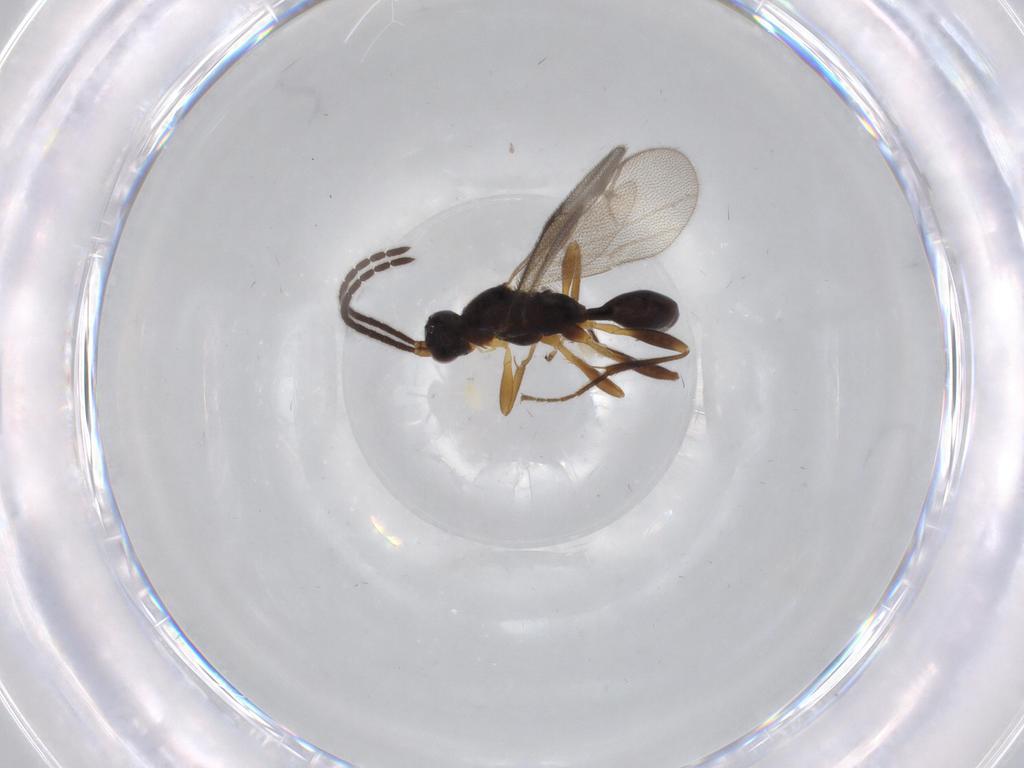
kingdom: Animalia
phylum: Arthropoda
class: Insecta
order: Hymenoptera
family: Proctotrupidae
